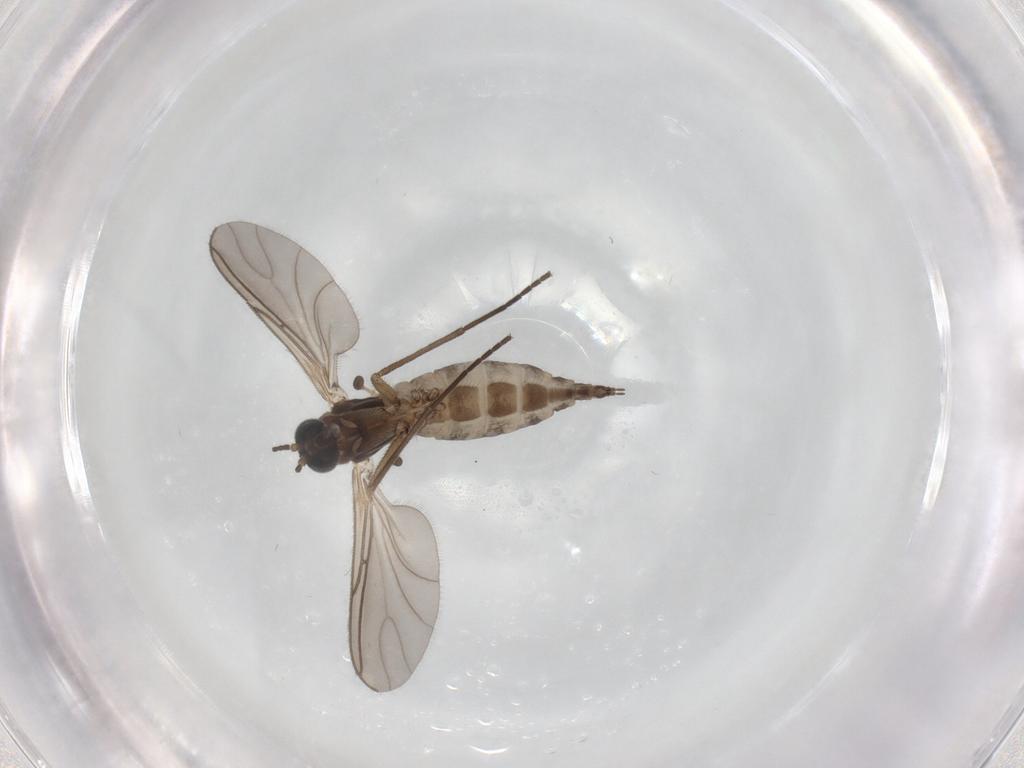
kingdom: Animalia
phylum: Arthropoda
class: Insecta
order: Diptera
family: Sciaridae
